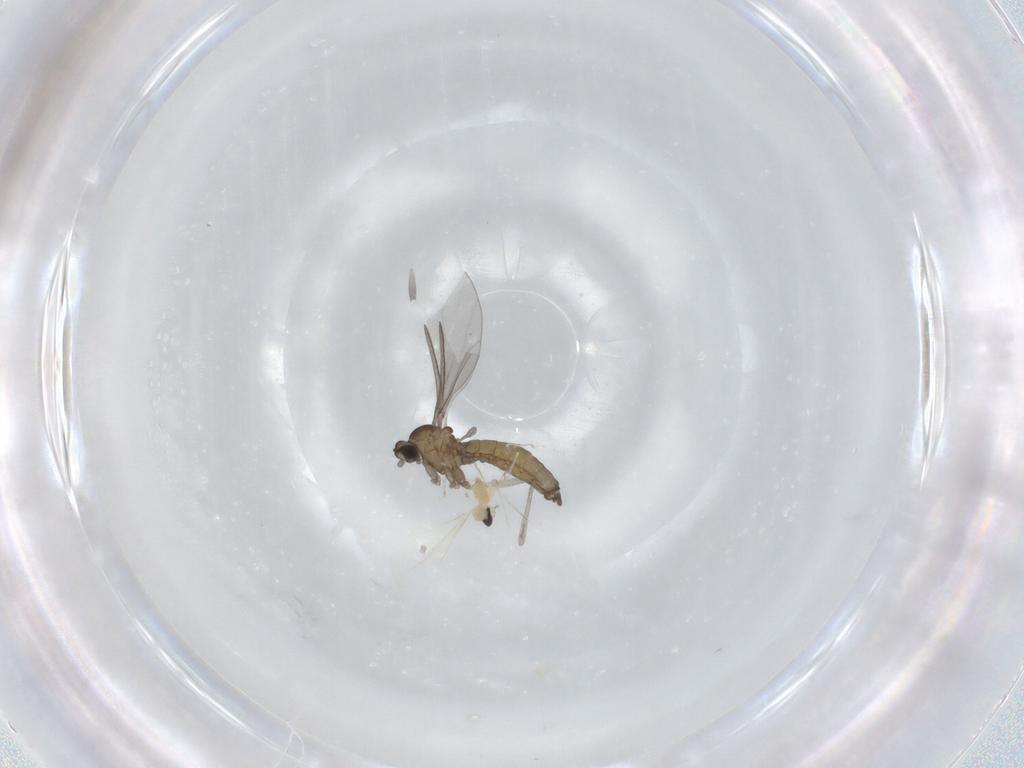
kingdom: Animalia
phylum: Arthropoda
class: Insecta
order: Diptera
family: Cecidomyiidae
